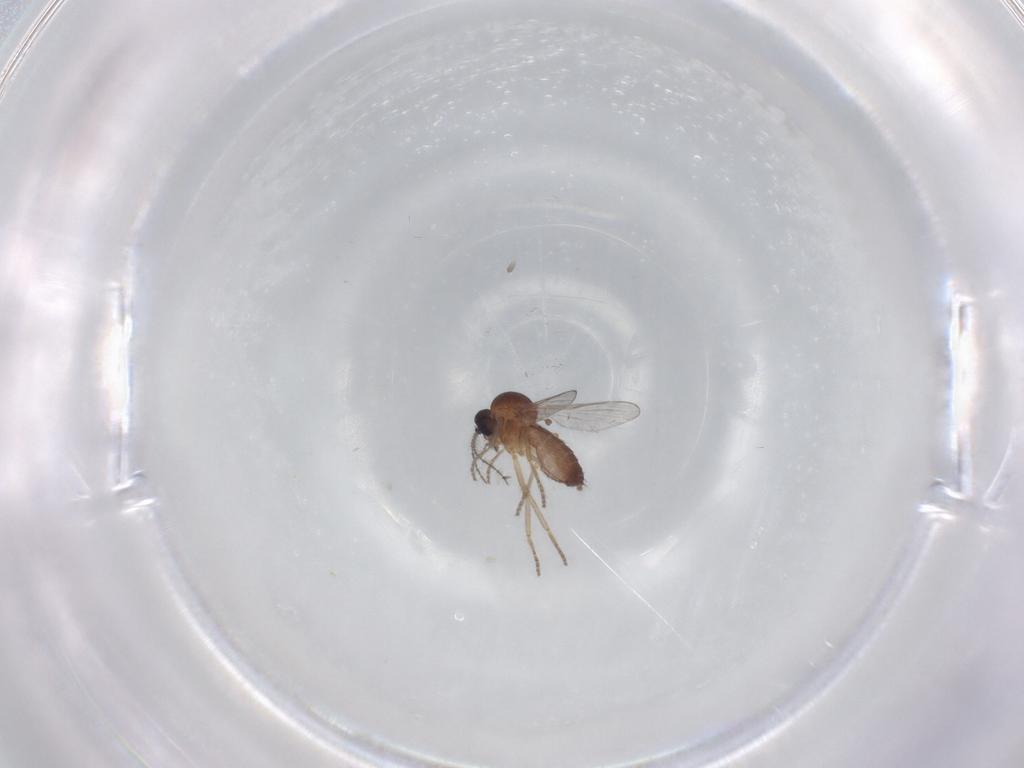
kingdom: Animalia
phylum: Arthropoda
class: Insecta
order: Diptera
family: Ceratopogonidae
